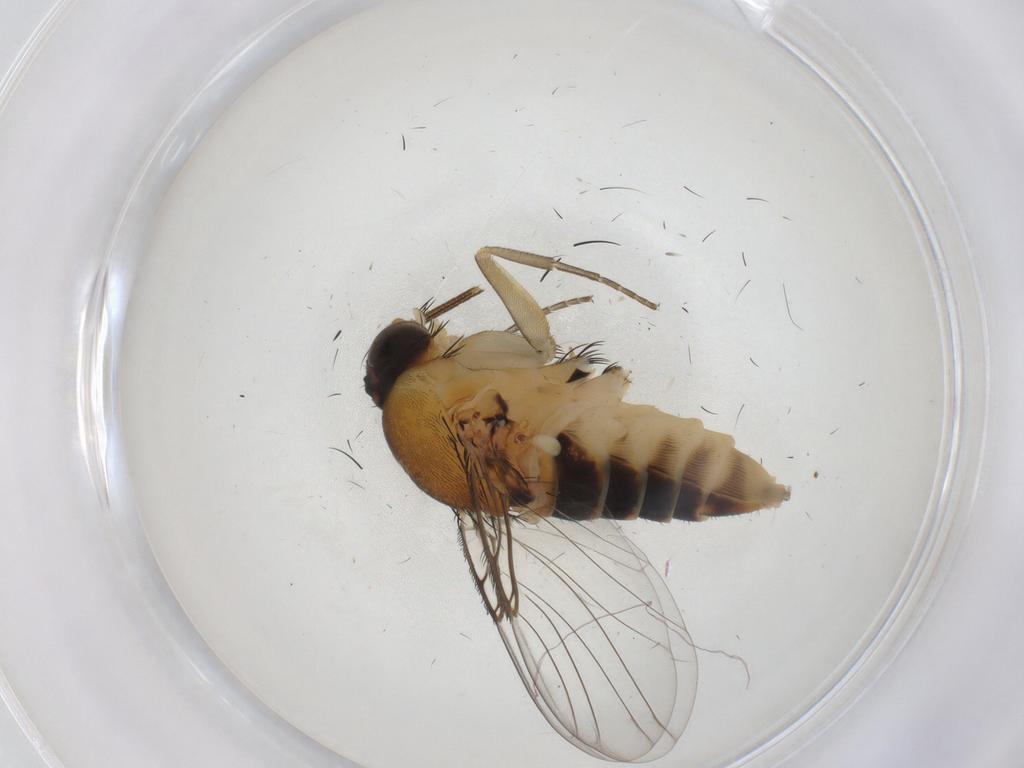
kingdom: Animalia
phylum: Arthropoda
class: Insecta
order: Diptera
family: Phoridae
